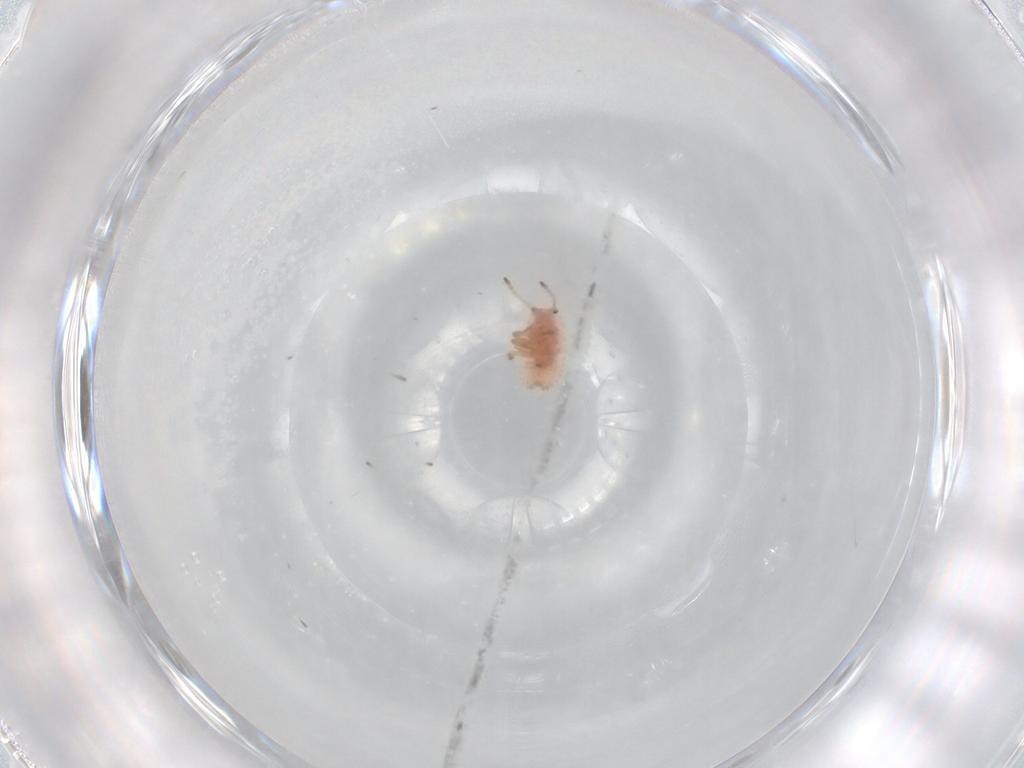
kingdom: Animalia
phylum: Arthropoda
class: Insecta
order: Hemiptera
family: Coccoidea_incertae_sedis
